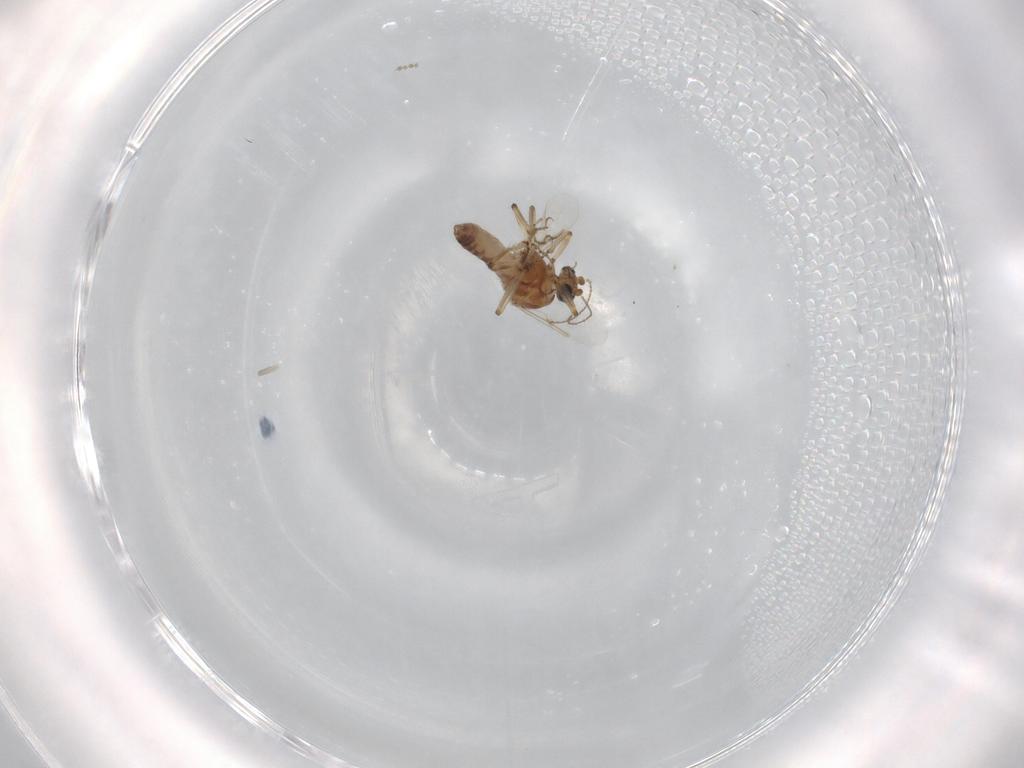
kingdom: Animalia
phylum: Arthropoda
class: Insecta
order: Diptera
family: Ceratopogonidae
